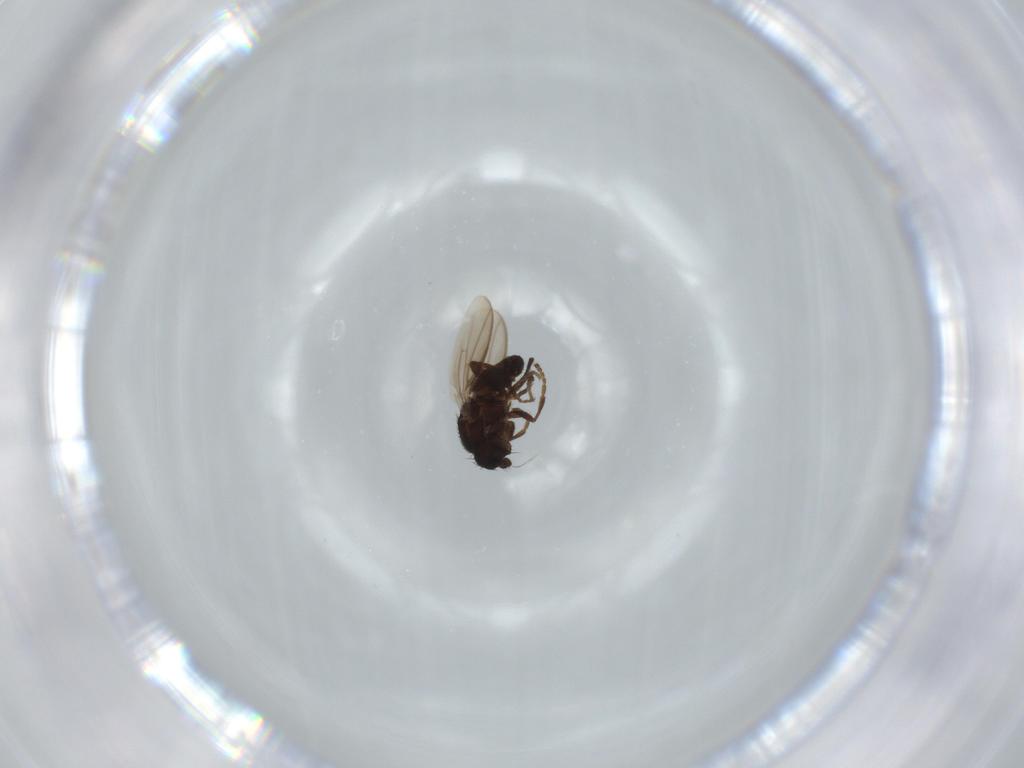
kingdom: Animalia
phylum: Arthropoda
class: Insecta
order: Diptera
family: Sphaeroceridae
